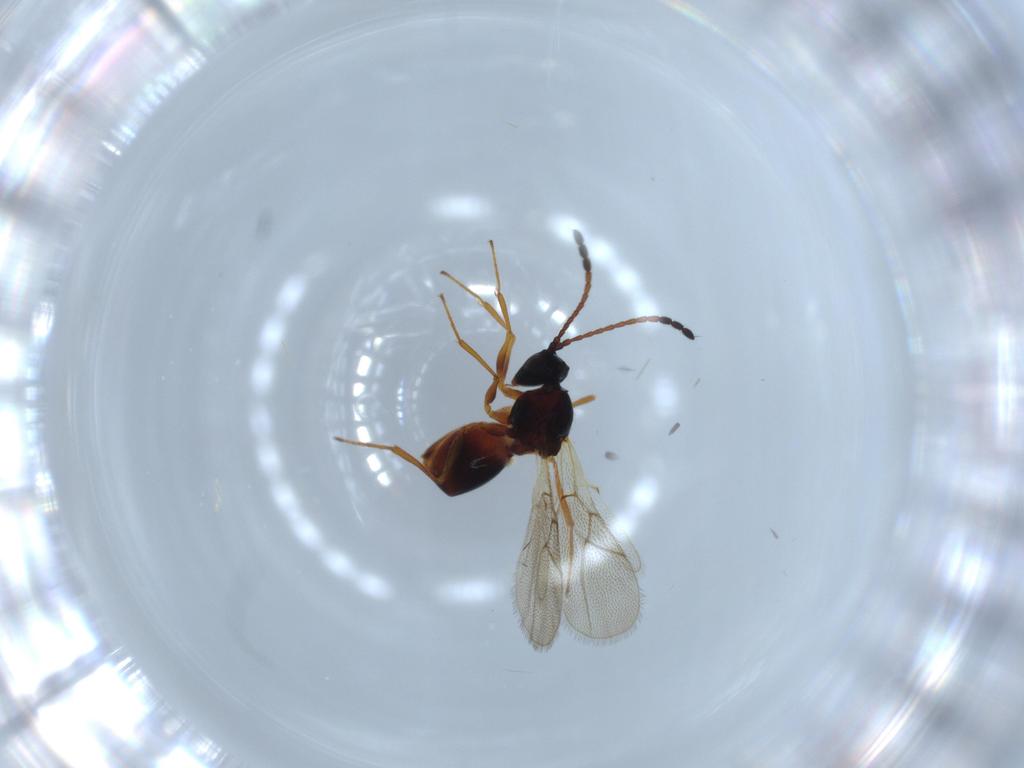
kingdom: Animalia
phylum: Arthropoda
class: Insecta
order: Hymenoptera
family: Figitidae
